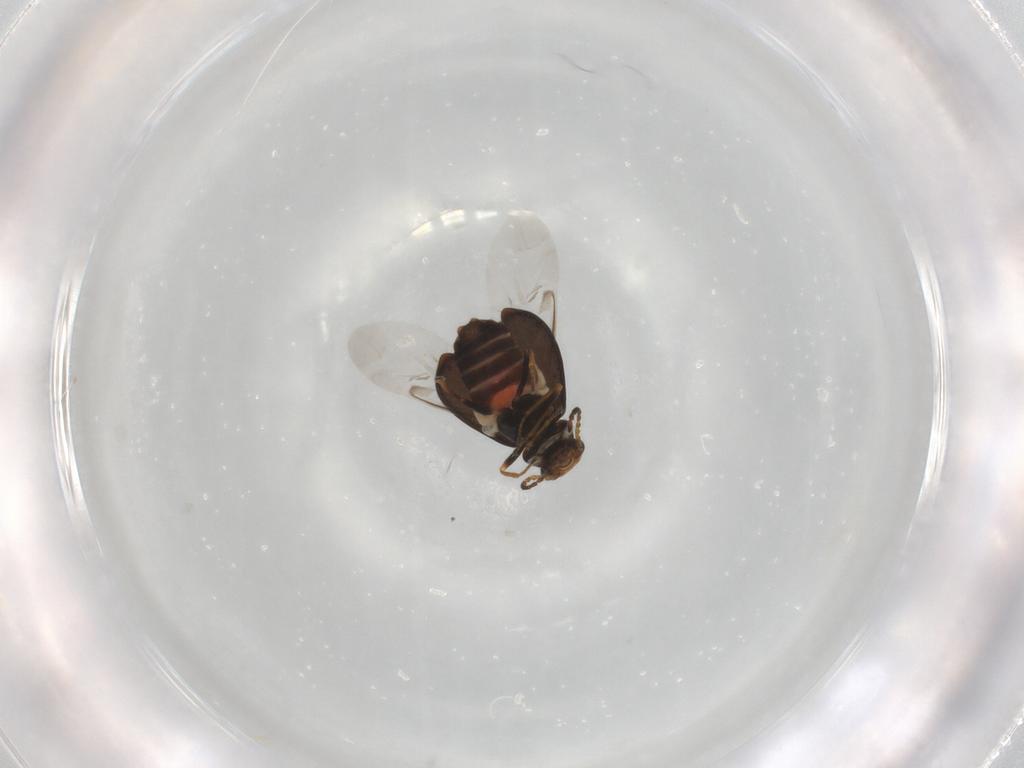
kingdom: Animalia
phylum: Arthropoda
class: Insecta
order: Coleoptera
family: Melyridae
